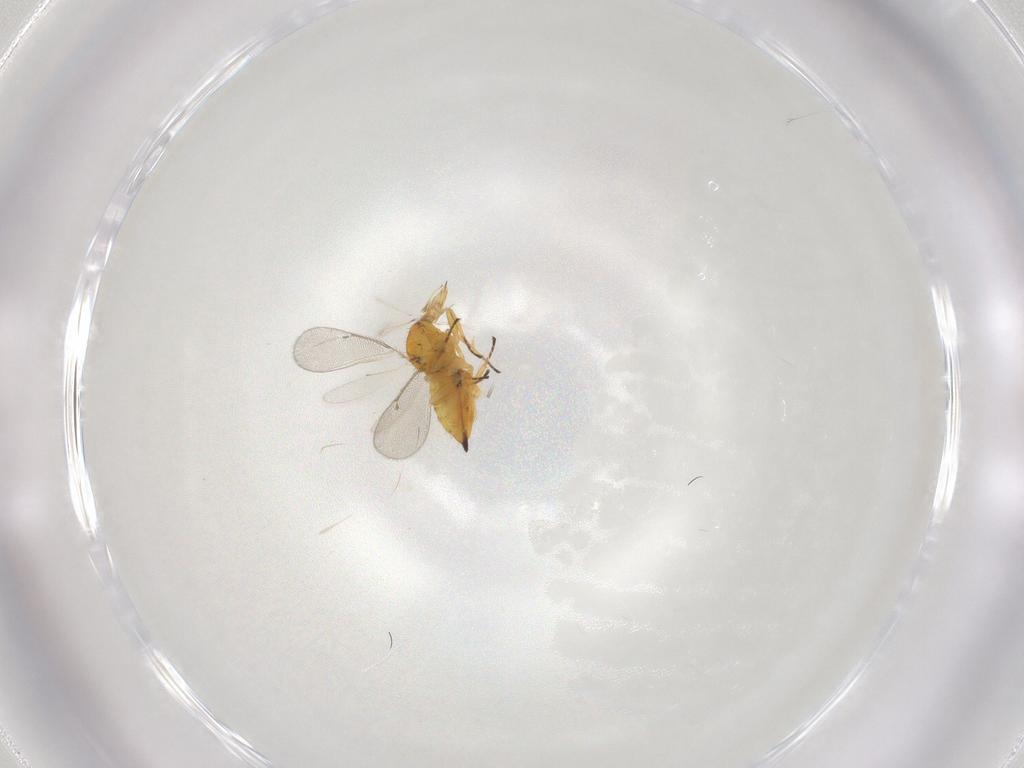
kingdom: Animalia
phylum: Arthropoda
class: Insecta
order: Hymenoptera
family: Eulophidae
